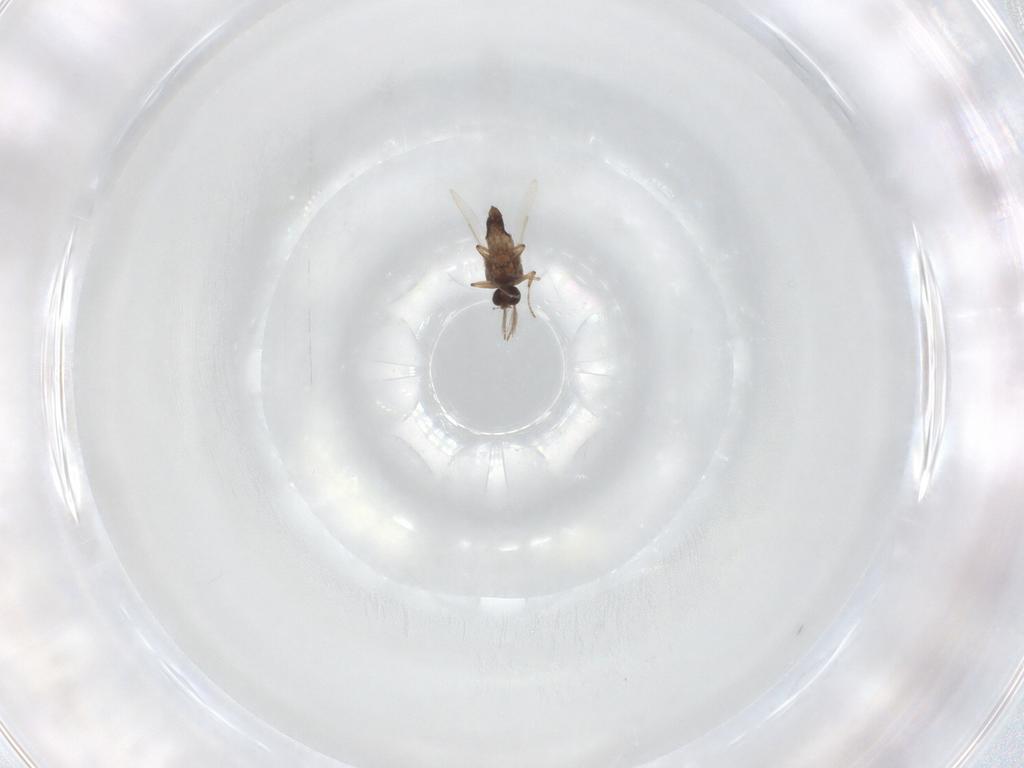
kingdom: Animalia
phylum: Arthropoda
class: Insecta
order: Diptera
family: Ceratopogonidae
